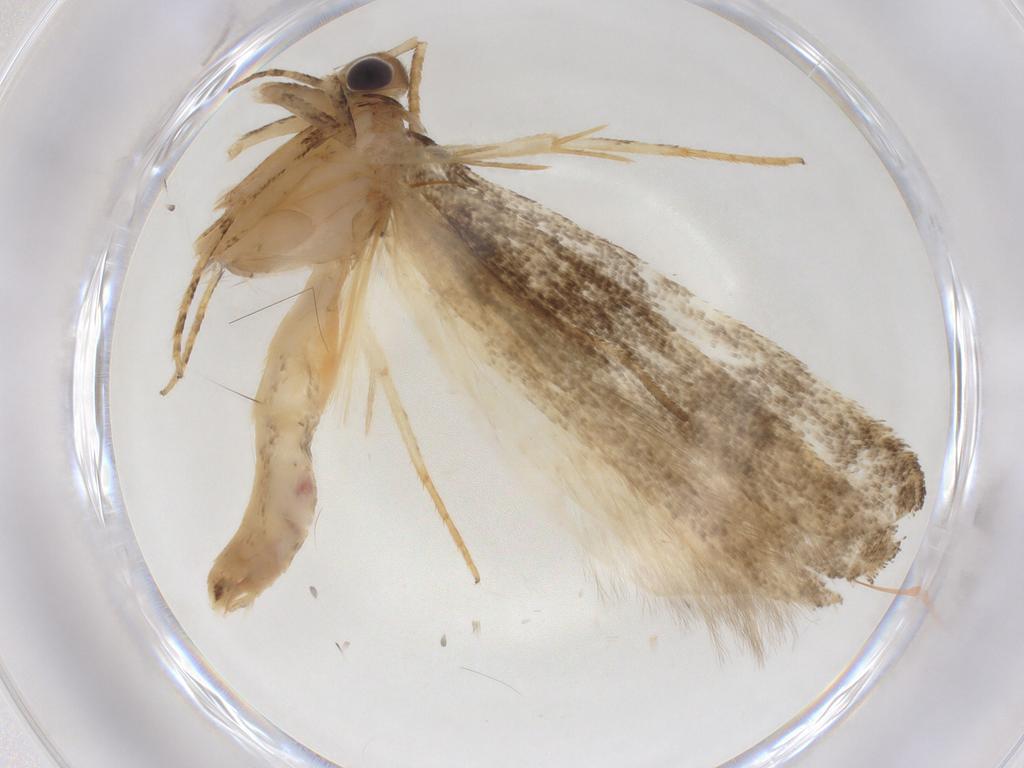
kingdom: Animalia
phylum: Arthropoda
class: Insecta
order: Lepidoptera
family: Gelechiidae
